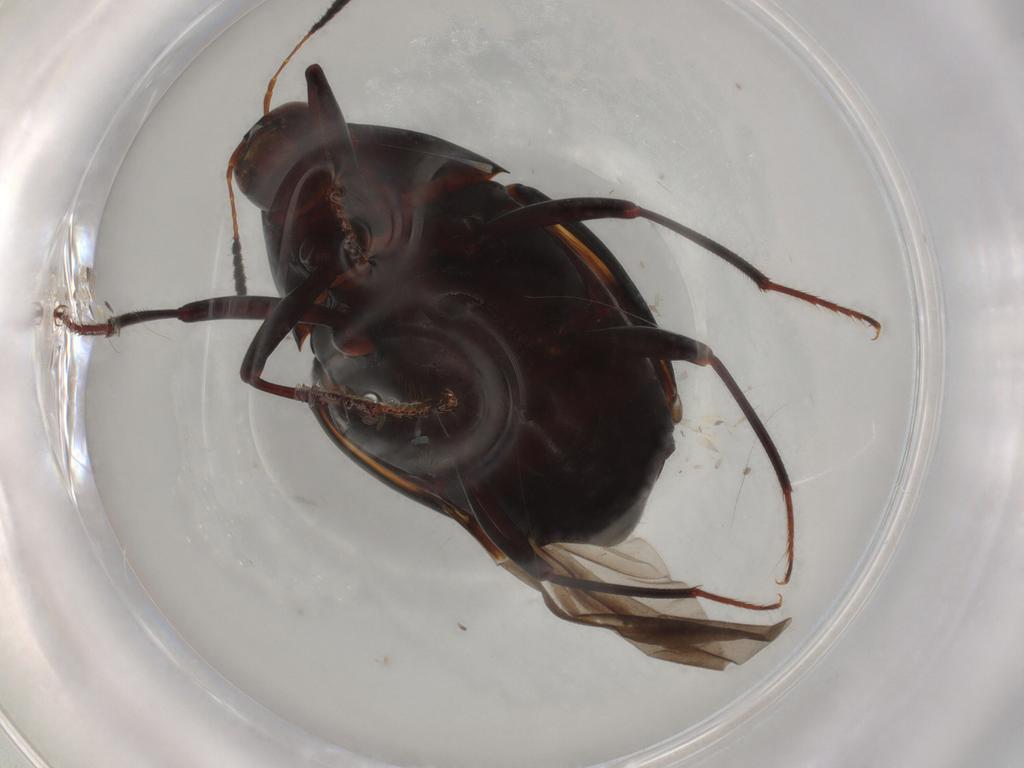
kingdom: Animalia
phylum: Arthropoda
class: Insecta
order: Coleoptera
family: Staphylinidae
